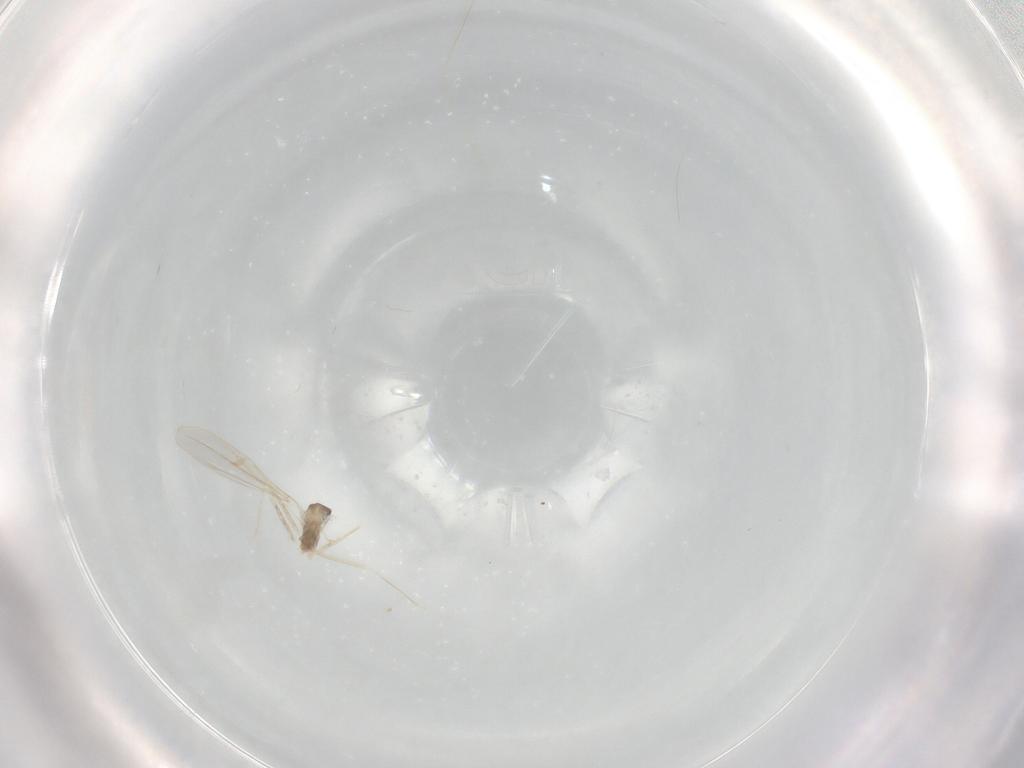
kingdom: Animalia
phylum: Arthropoda
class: Insecta
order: Diptera
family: Cecidomyiidae
